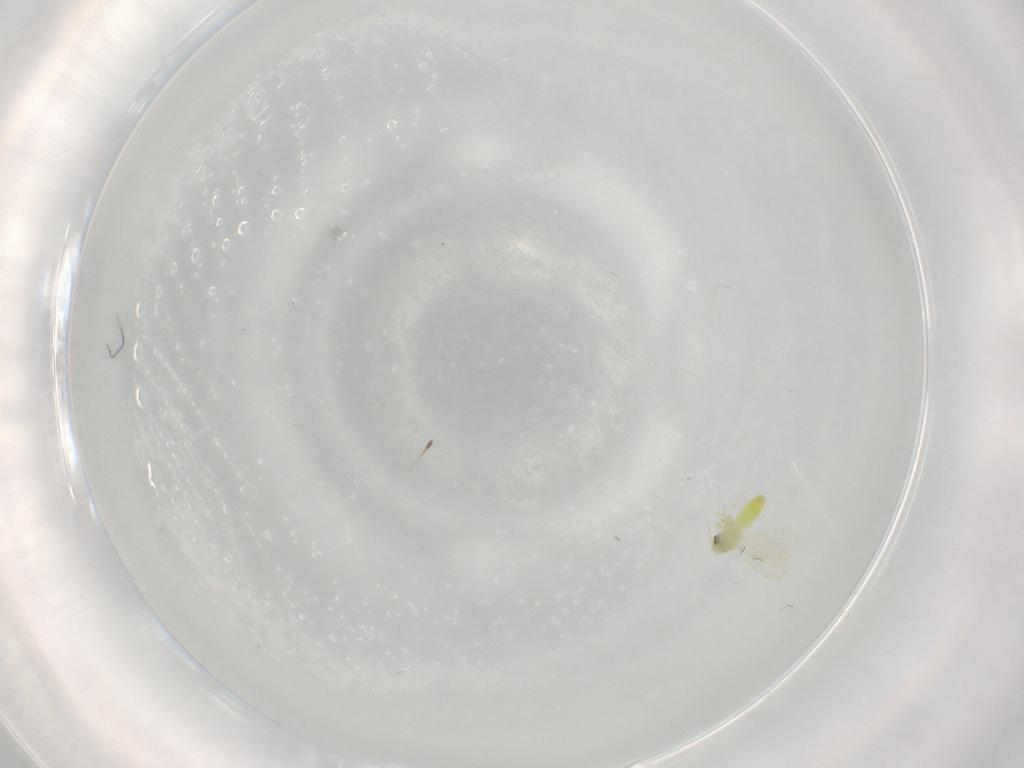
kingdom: Animalia
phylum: Arthropoda
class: Insecta
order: Hemiptera
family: Aleyrodidae
